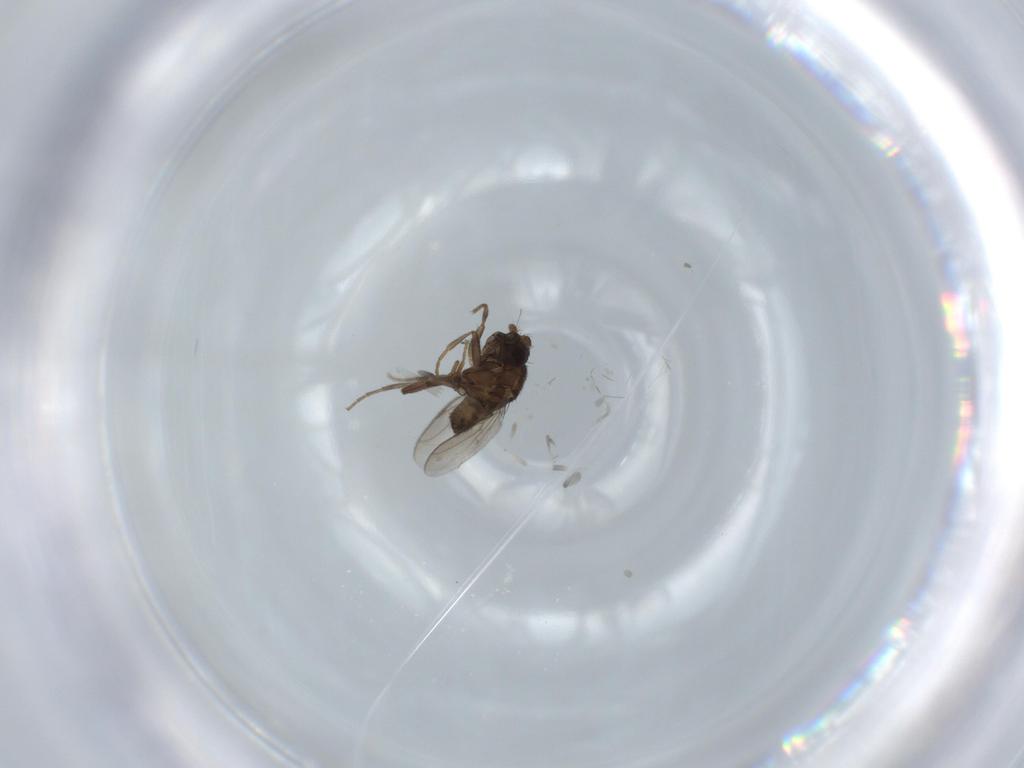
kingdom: Animalia
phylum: Arthropoda
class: Insecta
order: Diptera
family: Sphaeroceridae
